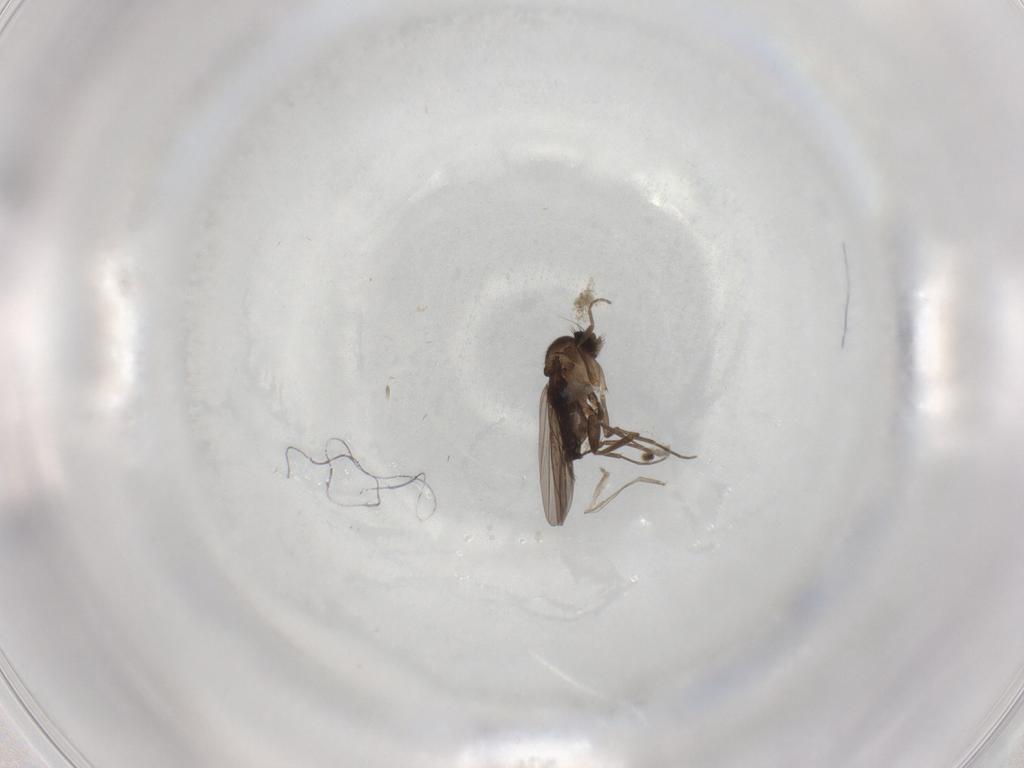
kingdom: Animalia
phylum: Arthropoda
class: Insecta
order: Diptera
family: Phoridae
